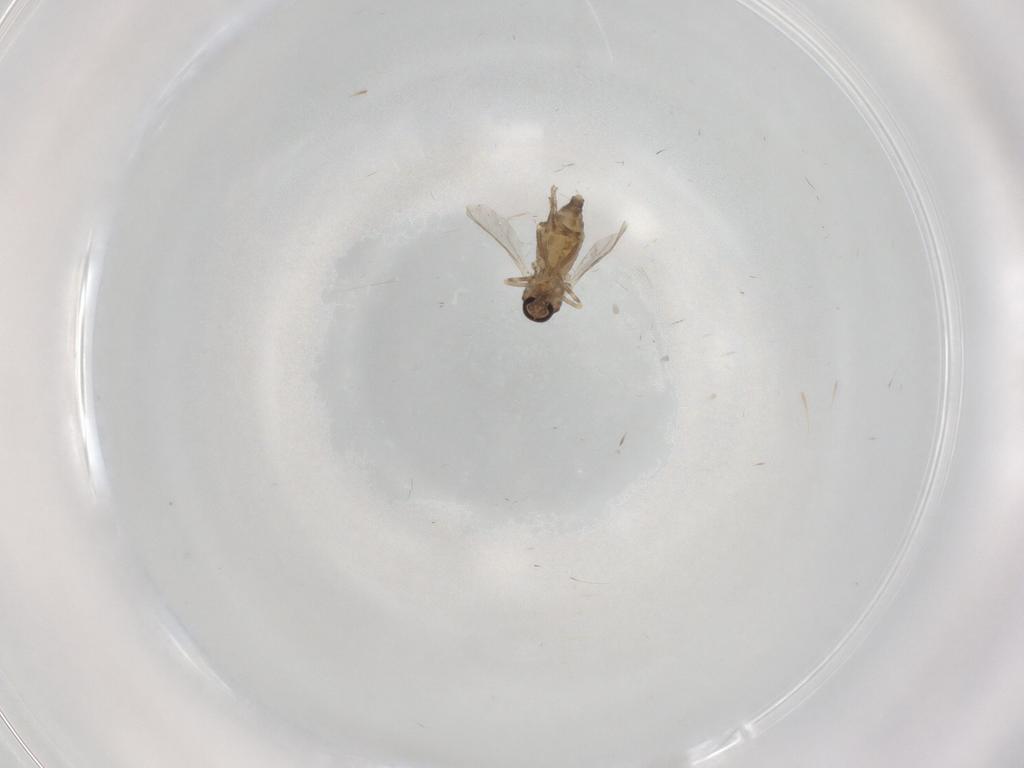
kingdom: Animalia
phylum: Arthropoda
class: Insecta
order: Diptera
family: Ceratopogonidae
